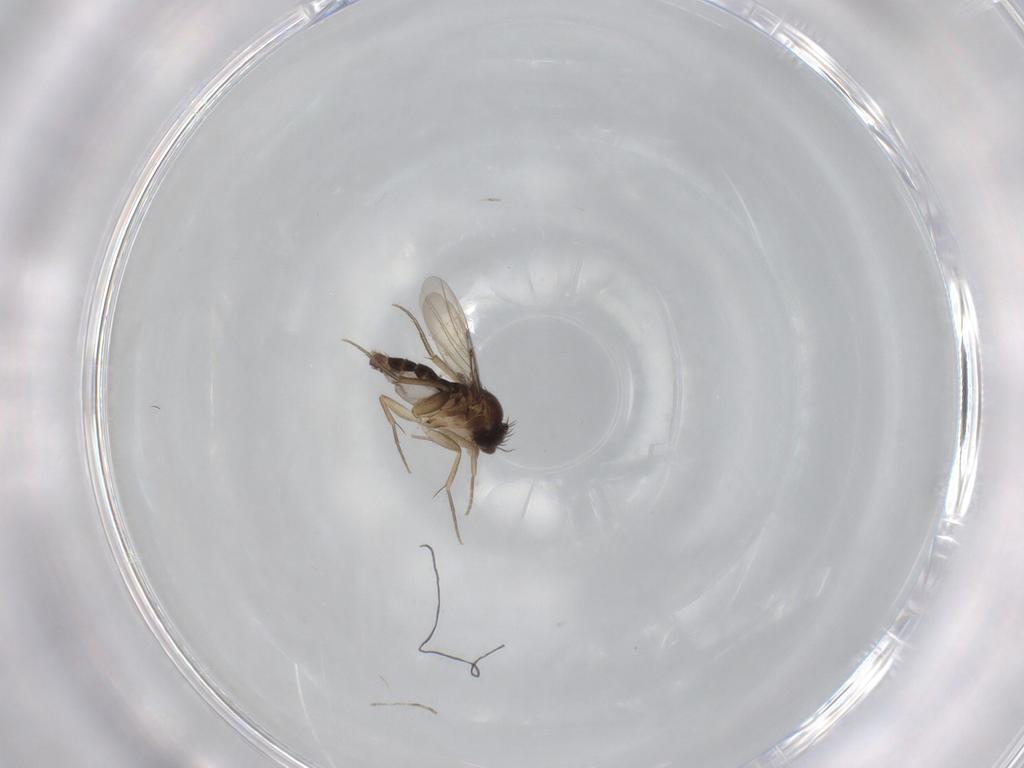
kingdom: Animalia
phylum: Arthropoda
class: Insecta
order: Diptera
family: Phoridae
